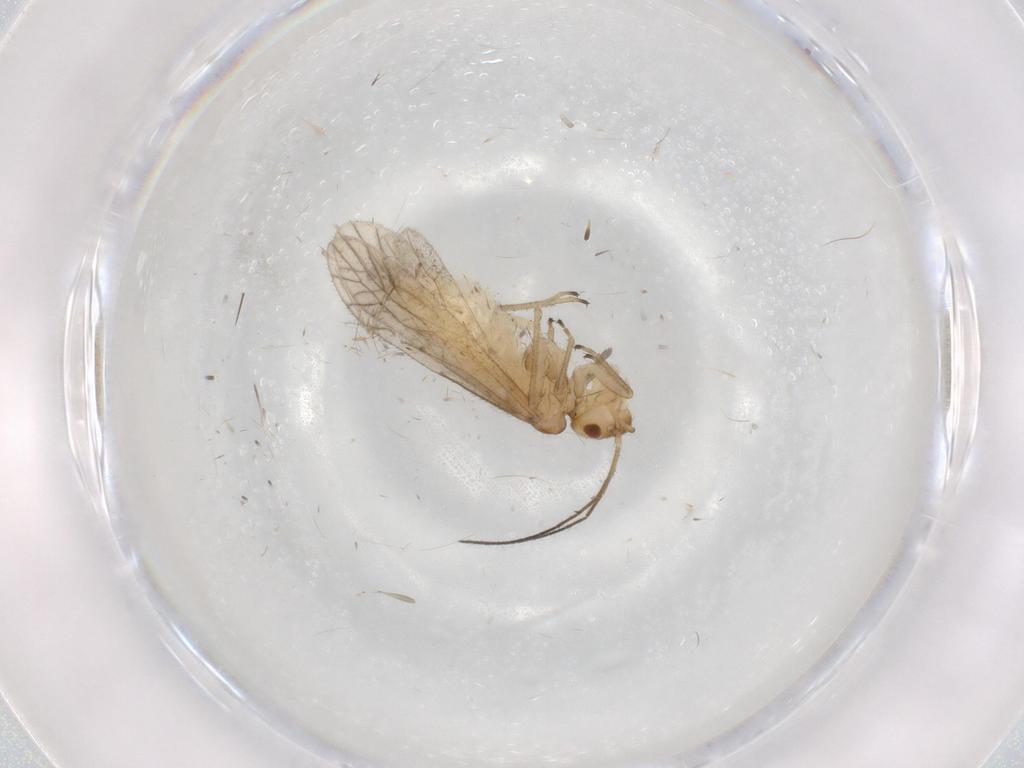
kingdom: Animalia
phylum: Arthropoda
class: Insecta
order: Psocodea
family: Caeciliusidae
